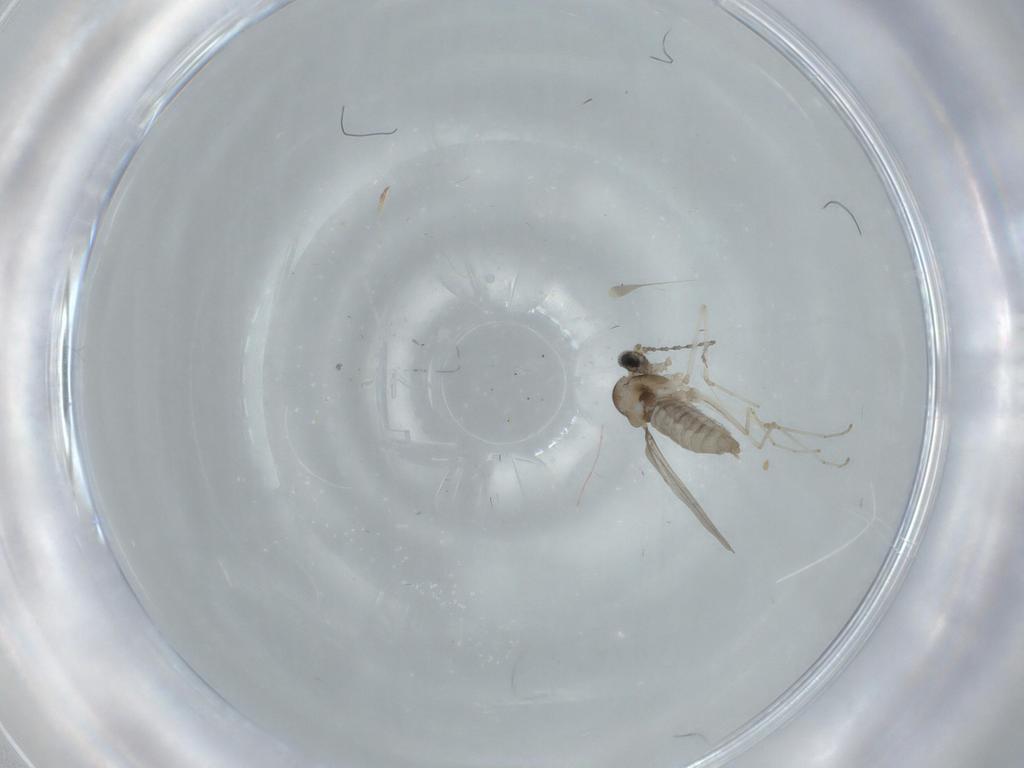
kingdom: Animalia
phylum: Arthropoda
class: Insecta
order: Diptera
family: Cecidomyiidae
